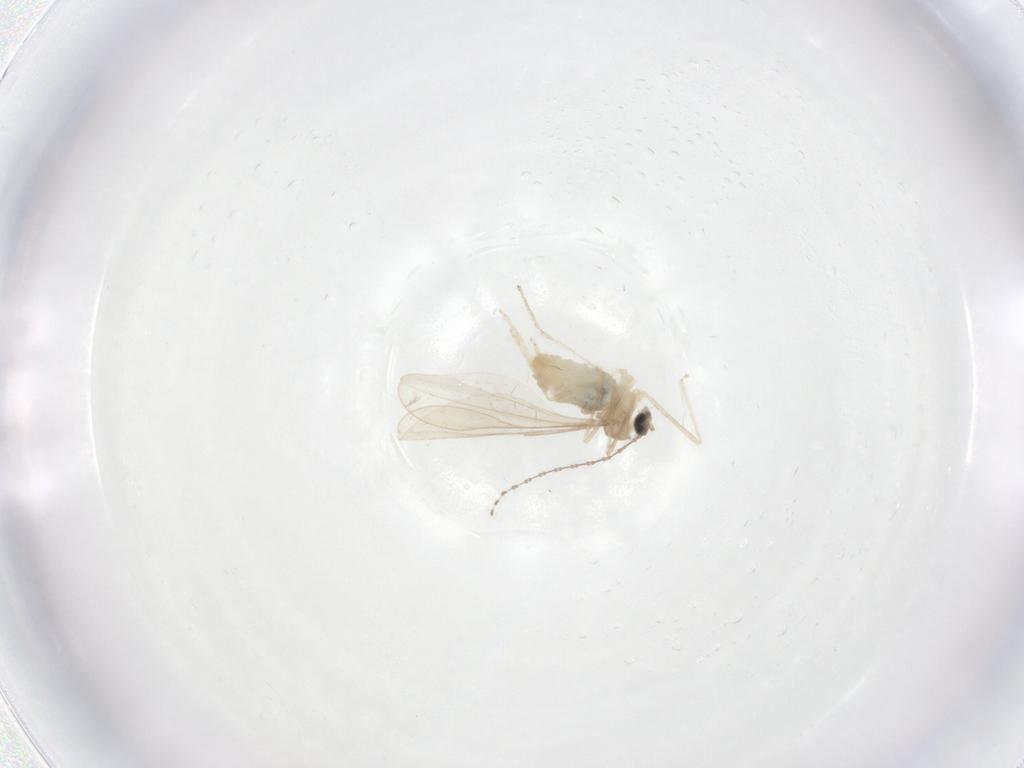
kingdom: Animalia
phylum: Arthropoda
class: Insecta
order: Diptera
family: Cecidomyiidae
